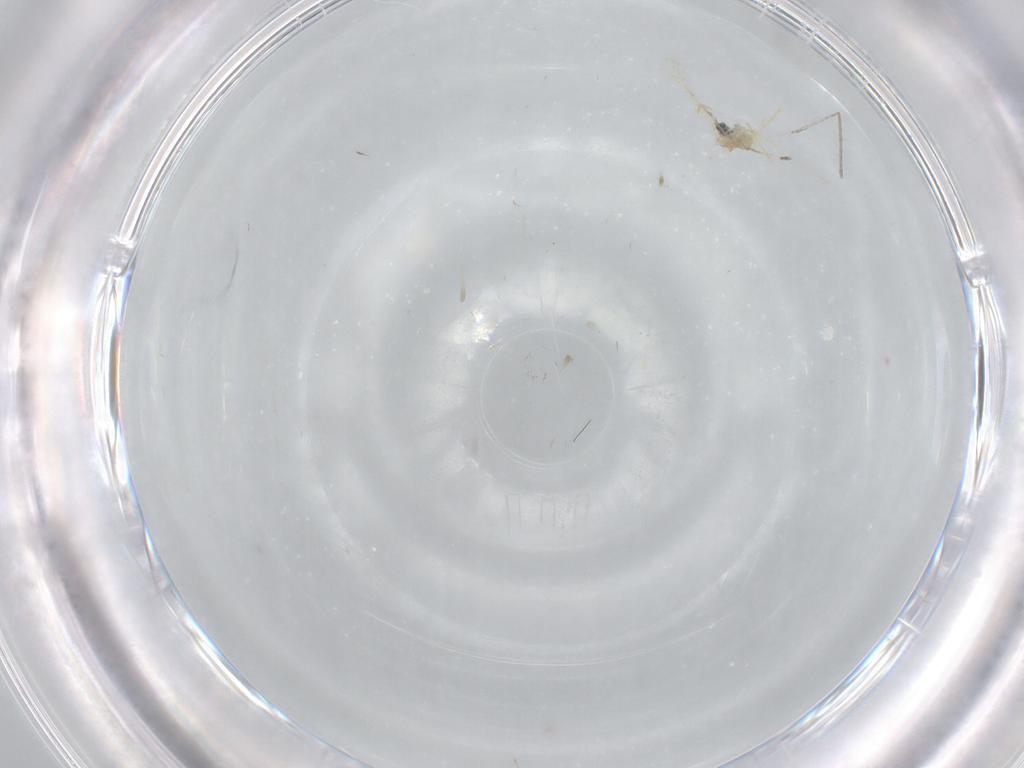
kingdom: Animalia
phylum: Arthropoda
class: Insecta
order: Diptera
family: Cecidomyiidae
